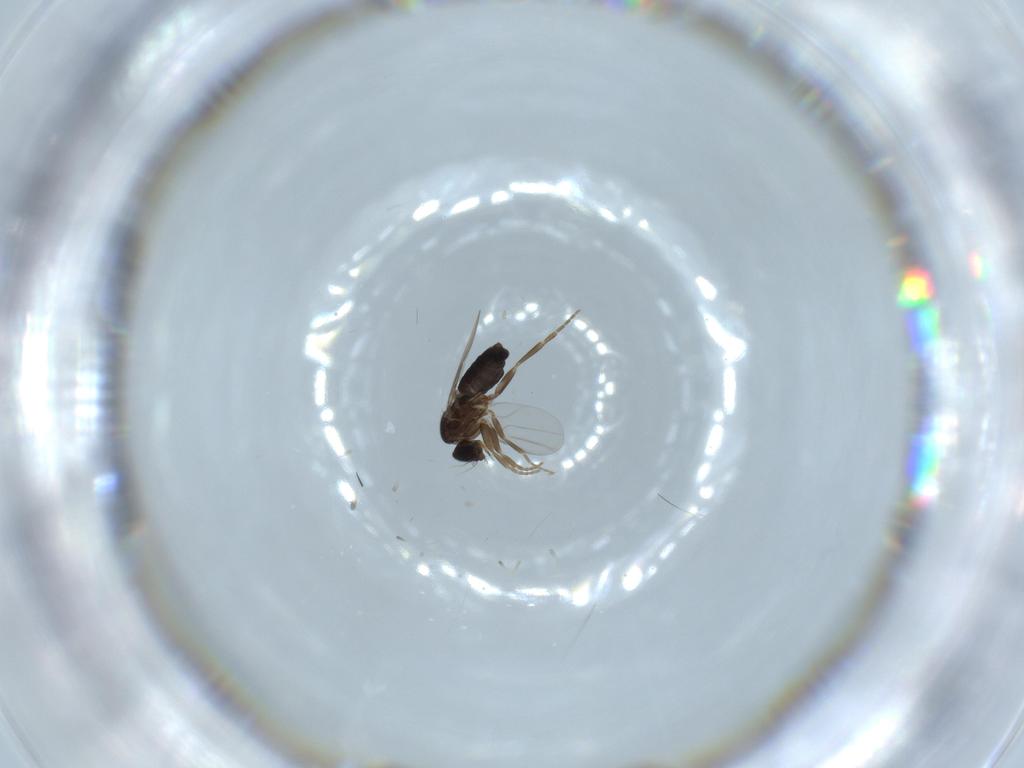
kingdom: Animalia
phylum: Arthropoda
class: Insecta
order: Diptera
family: Phoridae
